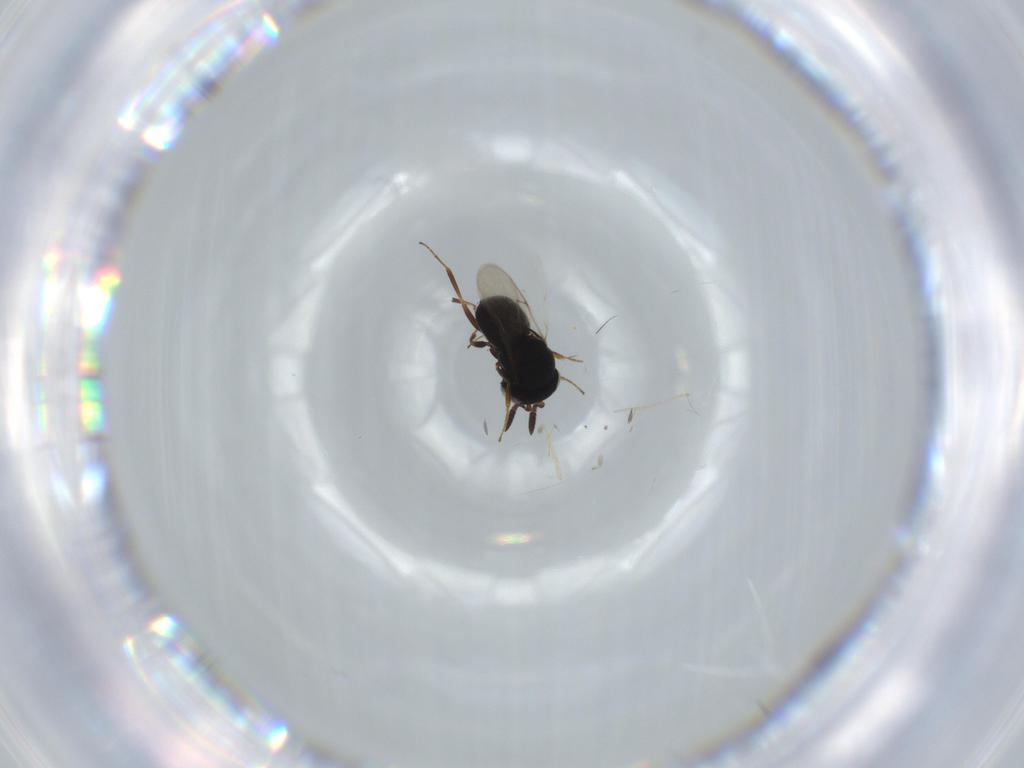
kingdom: Animalia
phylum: Arthropoda
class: Insecta
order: Hymenoptera
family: Scelionidae
